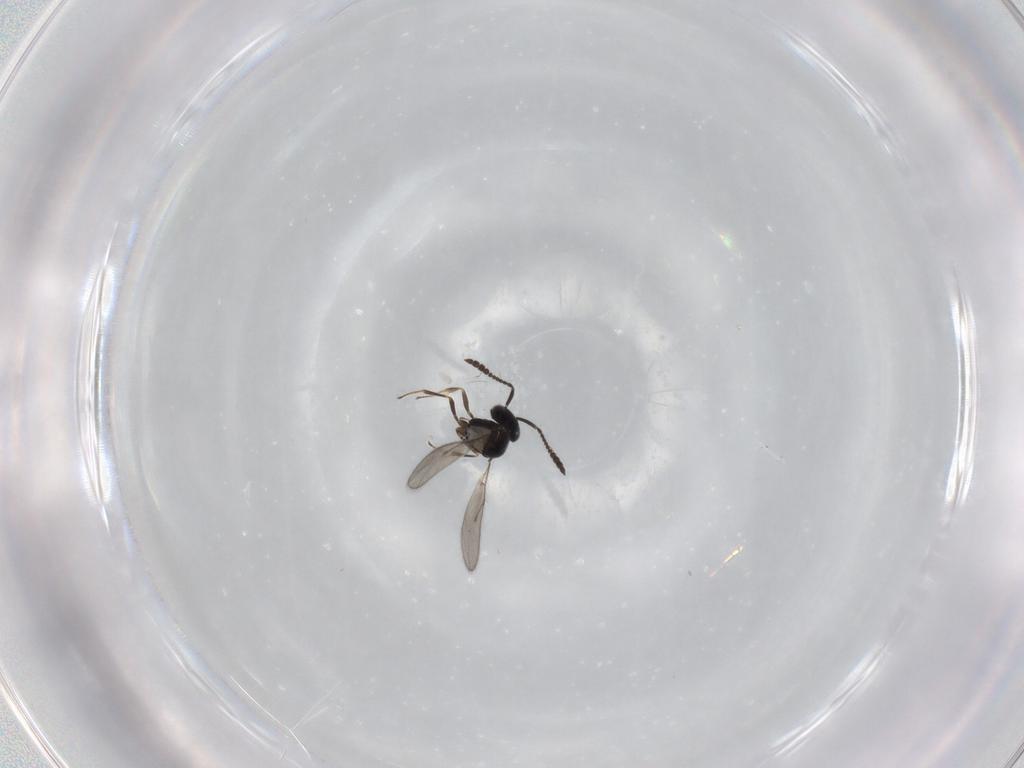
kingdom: Animalia
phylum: Arthropoda
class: Insecta
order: Hymenoptera
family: Scelionidae
